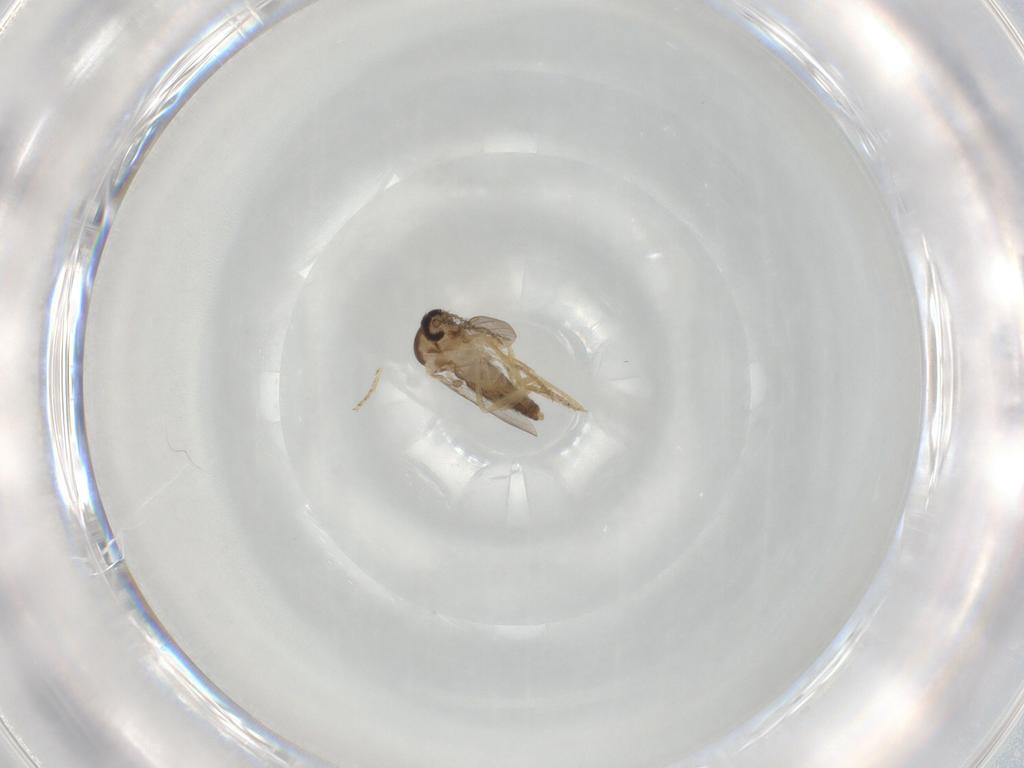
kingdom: Animalia
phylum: Arthropoda
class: Insecta
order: Diptera
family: Ceratopogonidae
